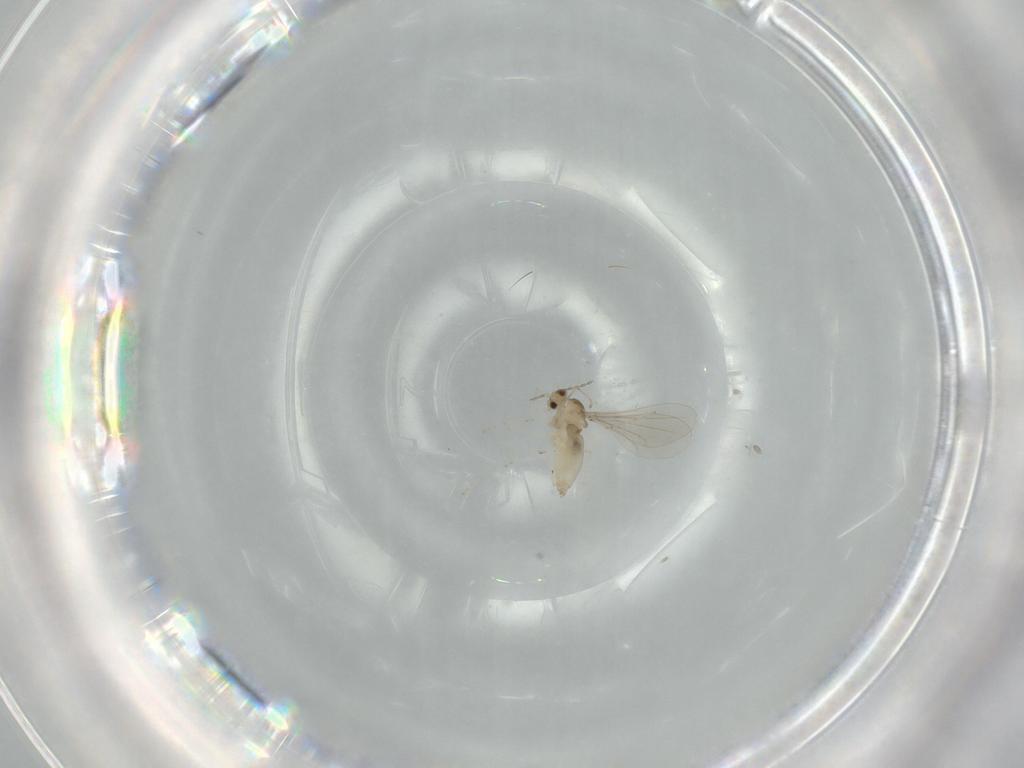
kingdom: Animalia
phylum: Arthropoda
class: Insecta
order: Diptera
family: Cecidomyiidae
